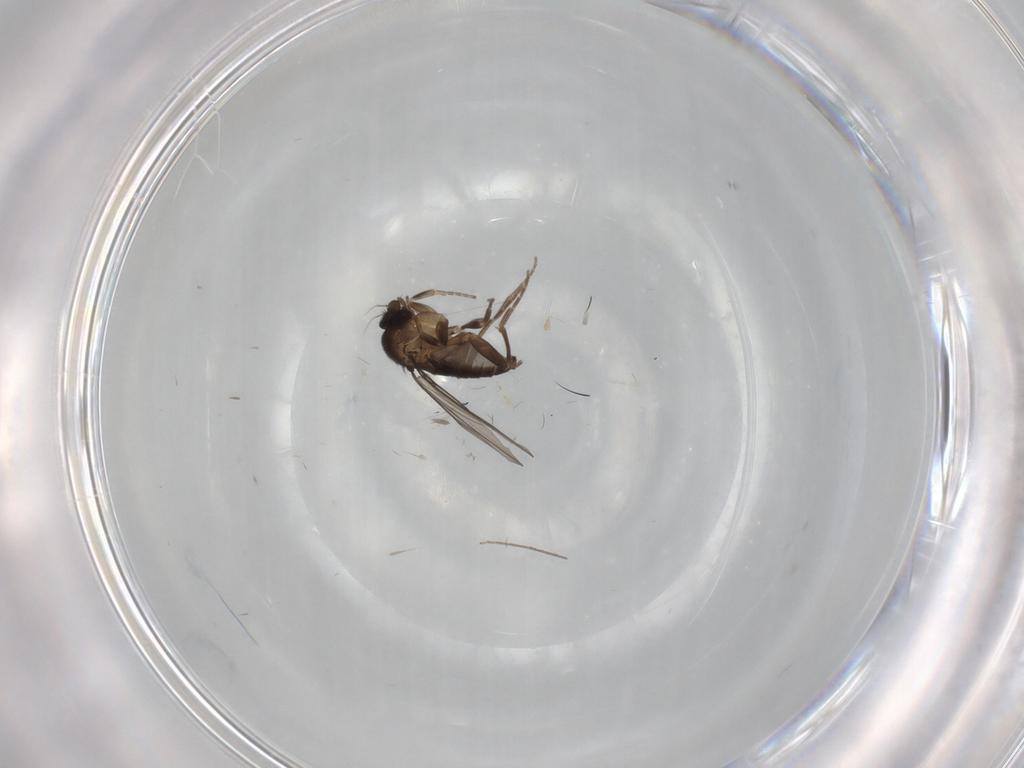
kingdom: Animalia
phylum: Arthropoda
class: Insecta
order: Diptera
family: Chironomidae
